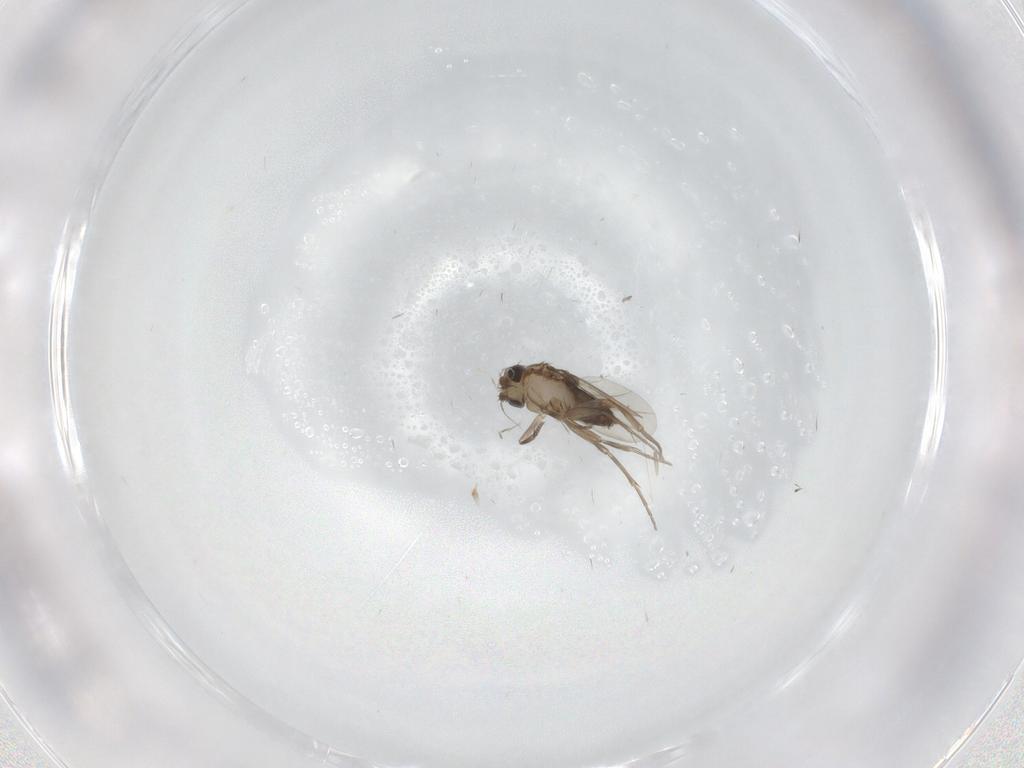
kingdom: Animalia
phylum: Arthropoda
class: Insecta
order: Diptera
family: Phoridae
